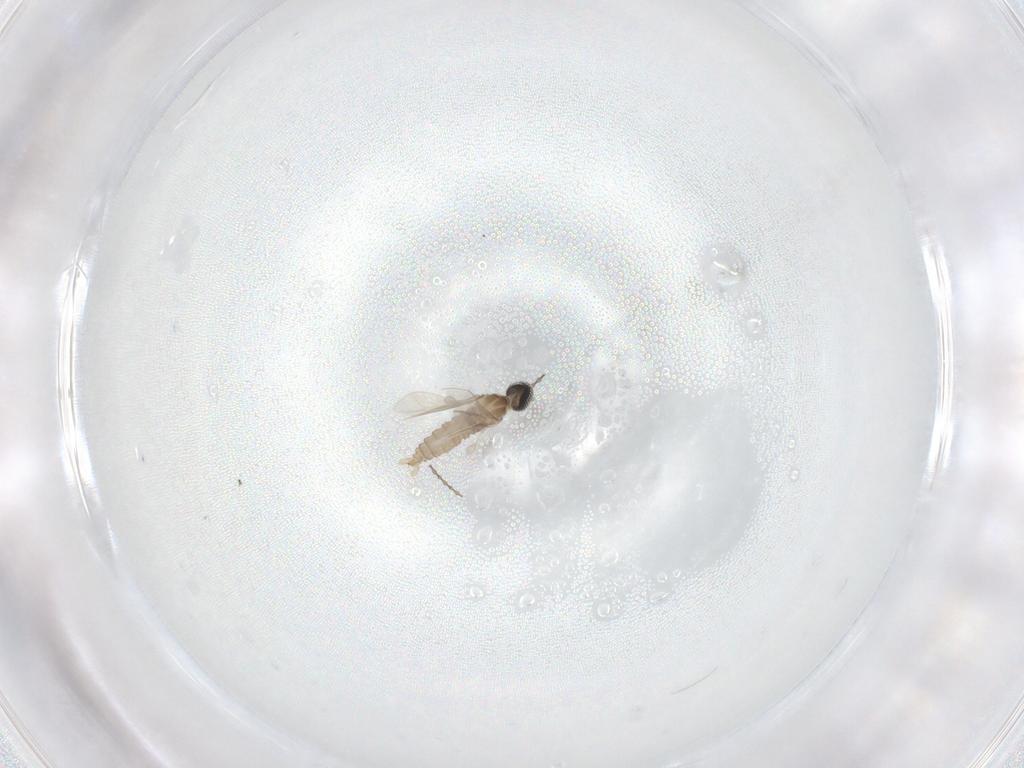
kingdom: Animalia
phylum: Arthropoda
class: Insecta
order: Diptera
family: Cecidomyiidae
